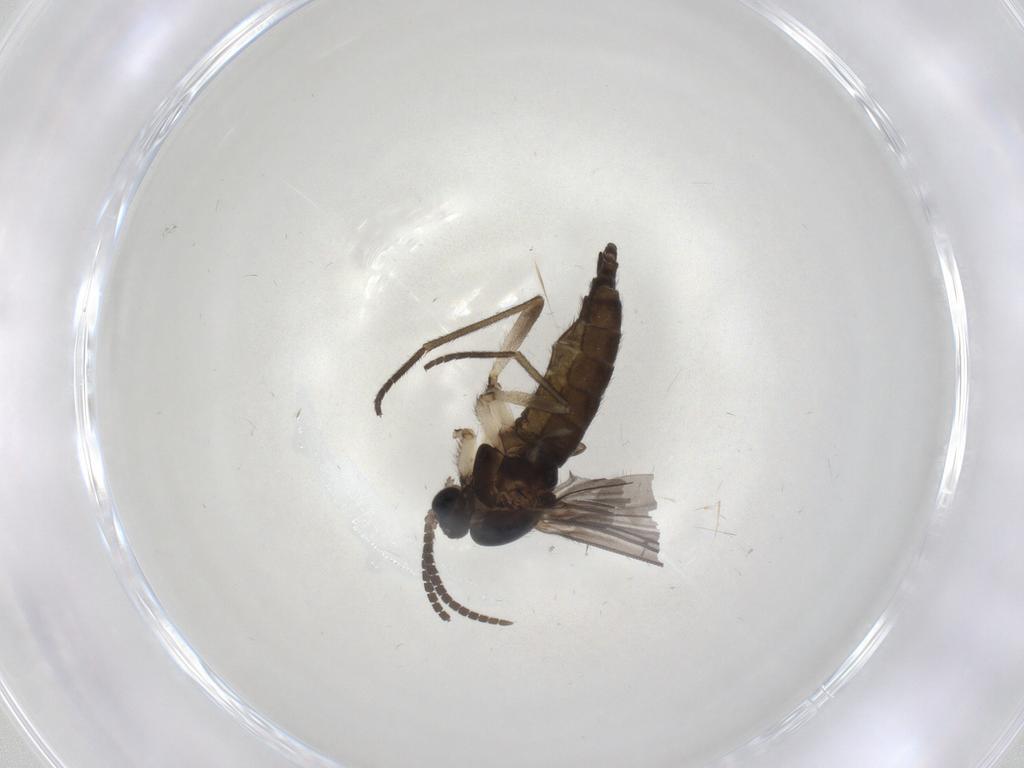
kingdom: Animalia
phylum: Arthropoda
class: Insecta
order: Diptera
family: Sciaridae
